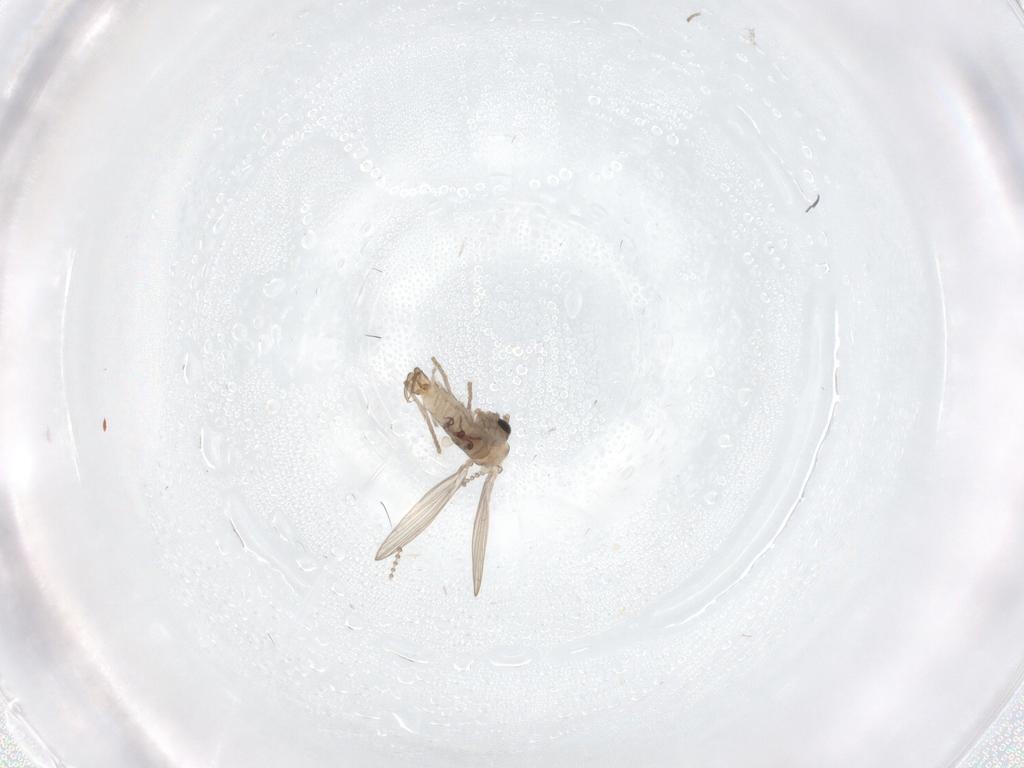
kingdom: Animalia
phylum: Arthropoda
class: Insecta
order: Diptera
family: Psychodidae
